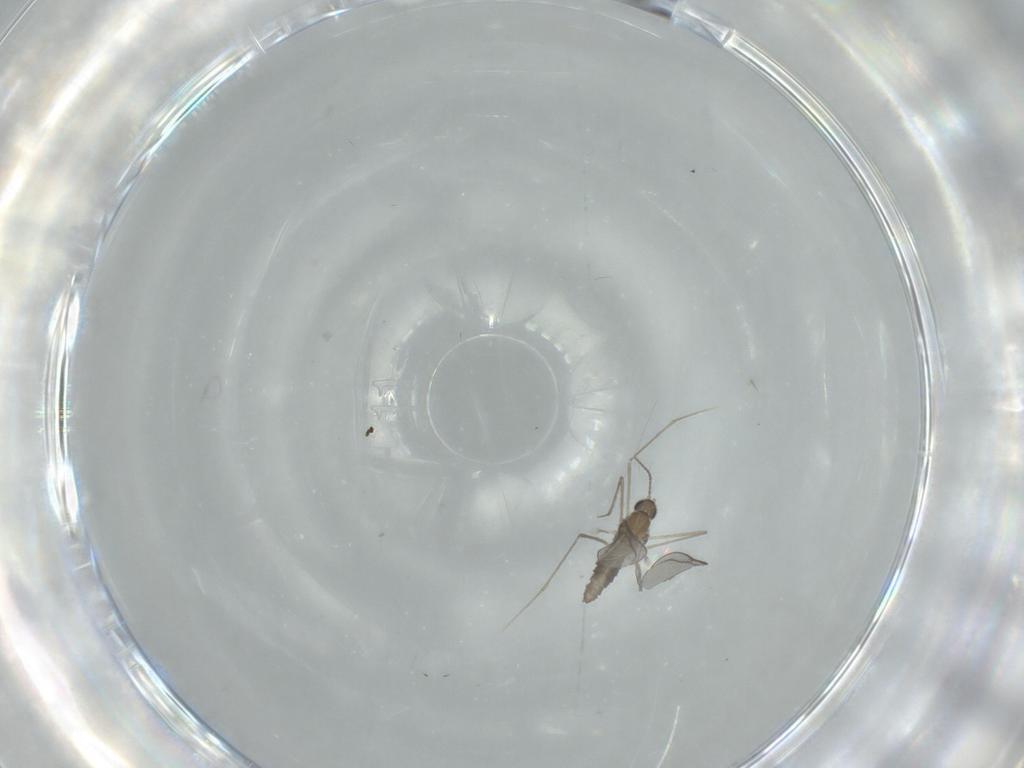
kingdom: Animalia
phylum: Arthropoda
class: Insecta
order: Diptera
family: Cecidomyiidae
